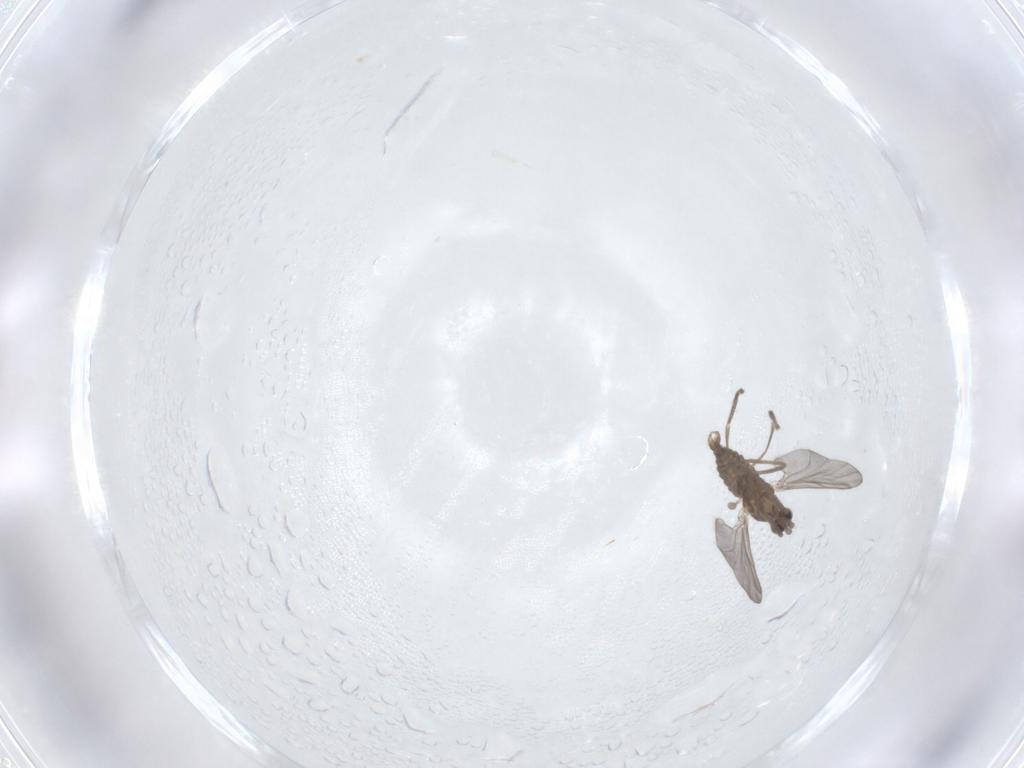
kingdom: Animalia
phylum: Arthropoda
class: Insecta
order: Diptera
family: Cecidomyiidae
